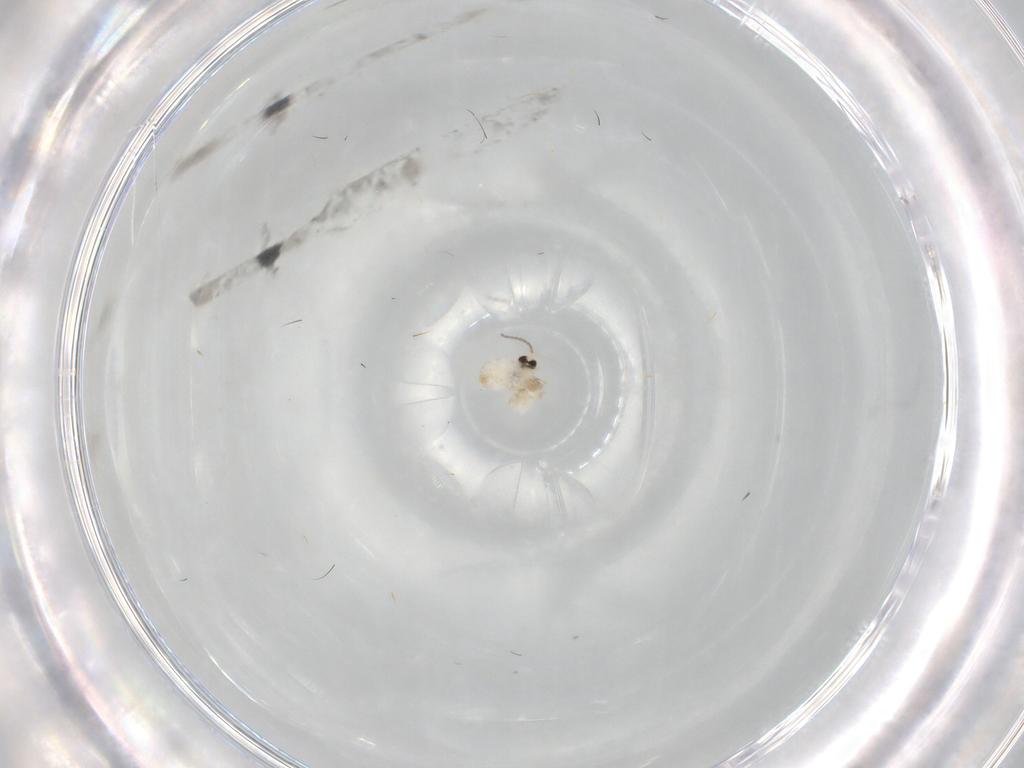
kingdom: Animalia
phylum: Arthropoda
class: Insecta
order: Diptera
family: Cecidomyiidae
